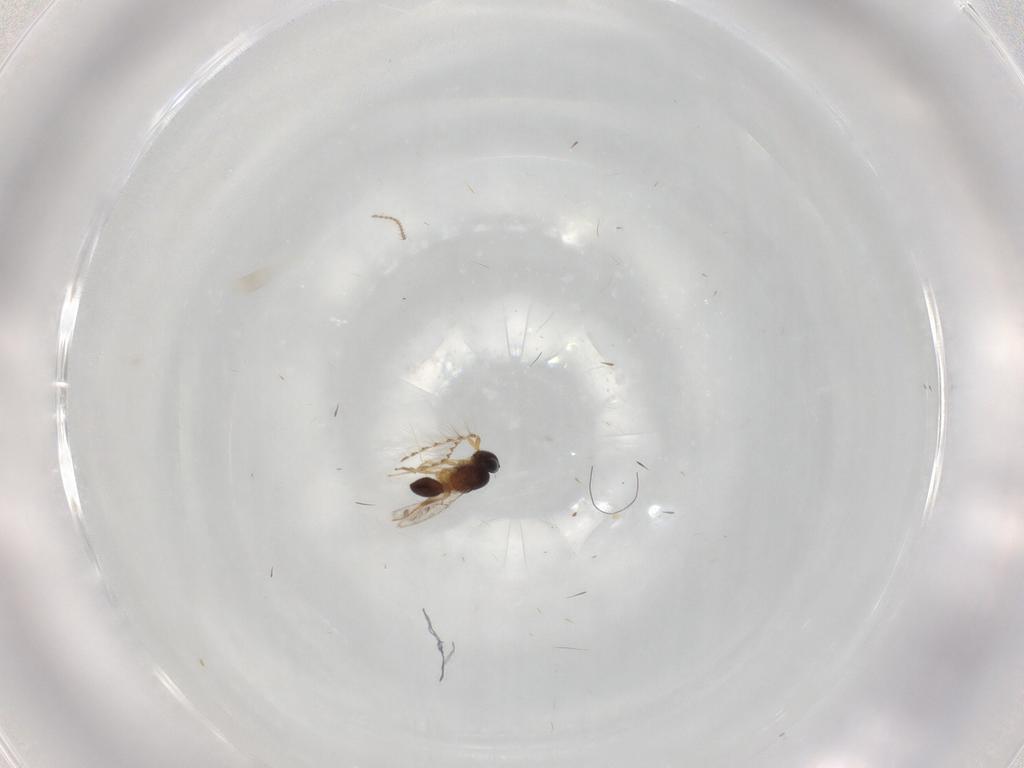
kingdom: Animalia
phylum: Arthropoda
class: Insecta
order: Hymenoptera
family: Platygastridae
